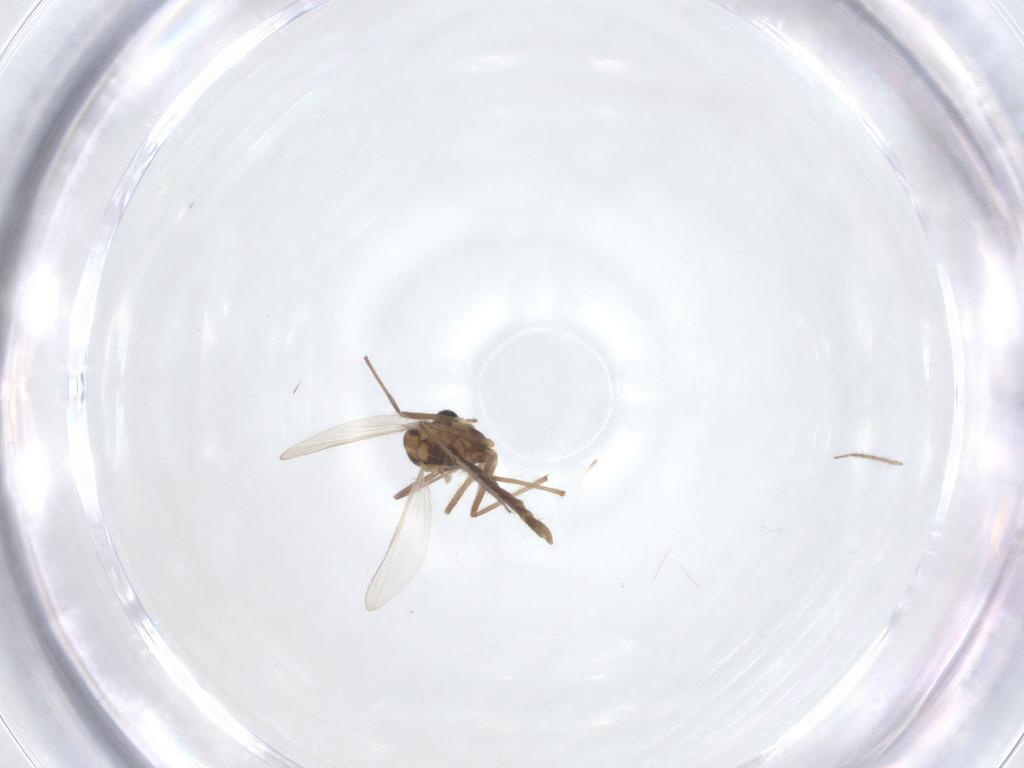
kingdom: Animalia
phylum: Arthropoda
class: Insecta
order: Diptera
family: Chironomidae
